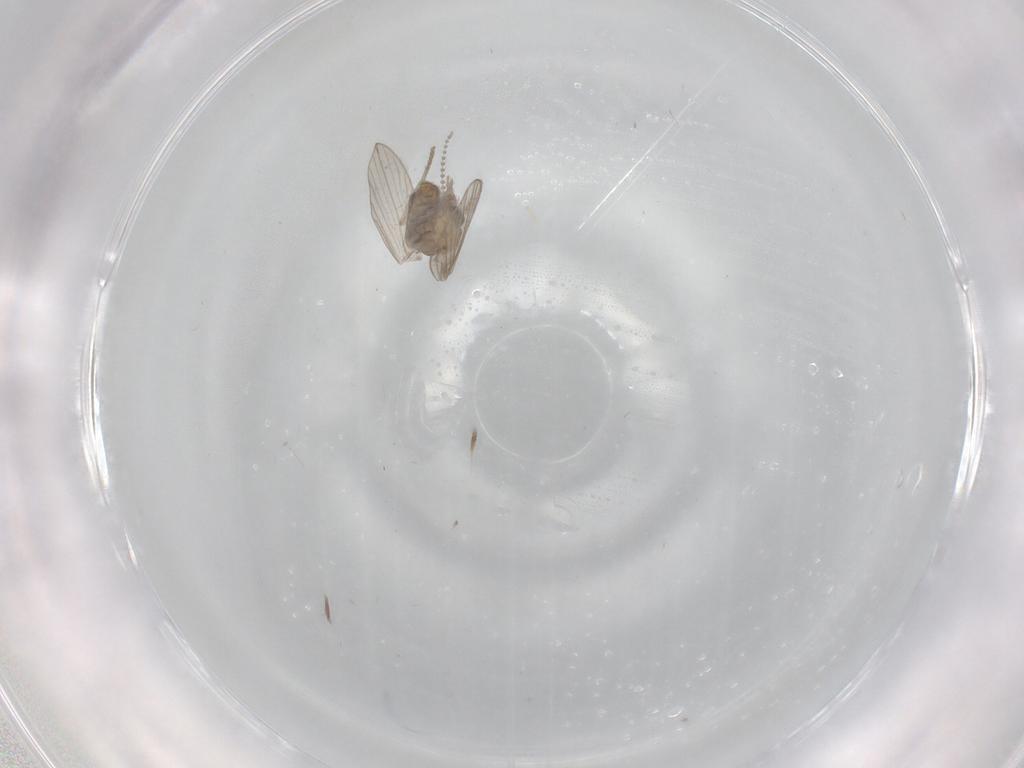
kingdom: Animalia
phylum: Arthropoda
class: Insecta
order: Diptera
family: Psychodidae
